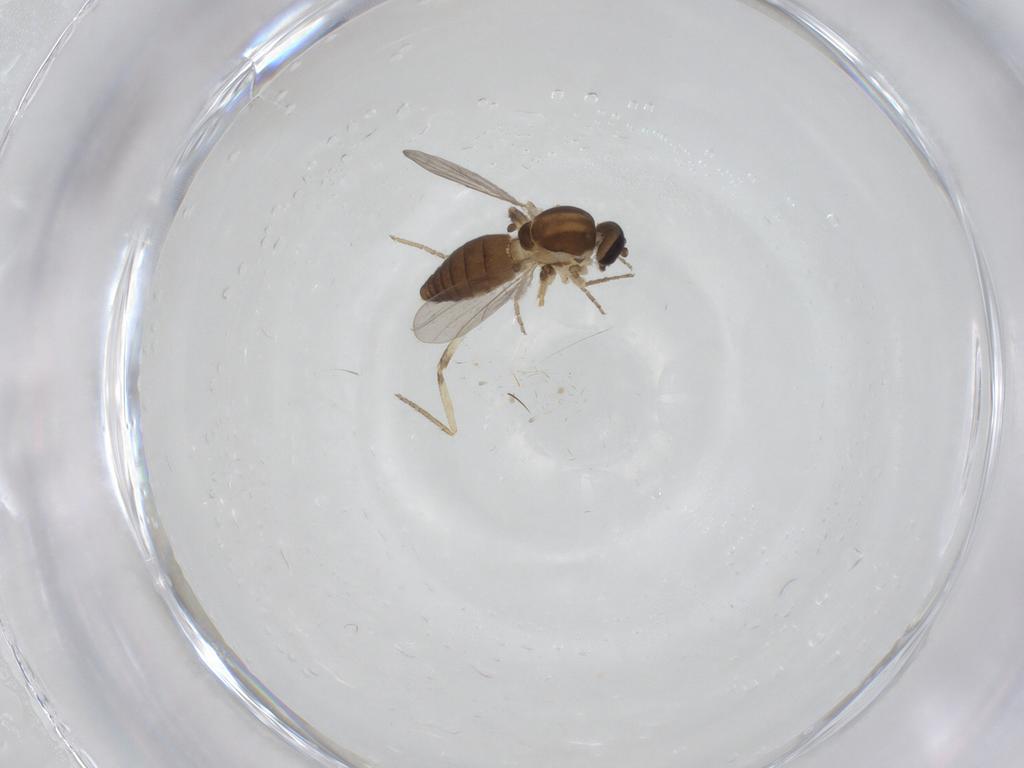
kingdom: Animalia
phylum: Arthropoda
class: Insecta
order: Diptera
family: Ceratopogonidae
